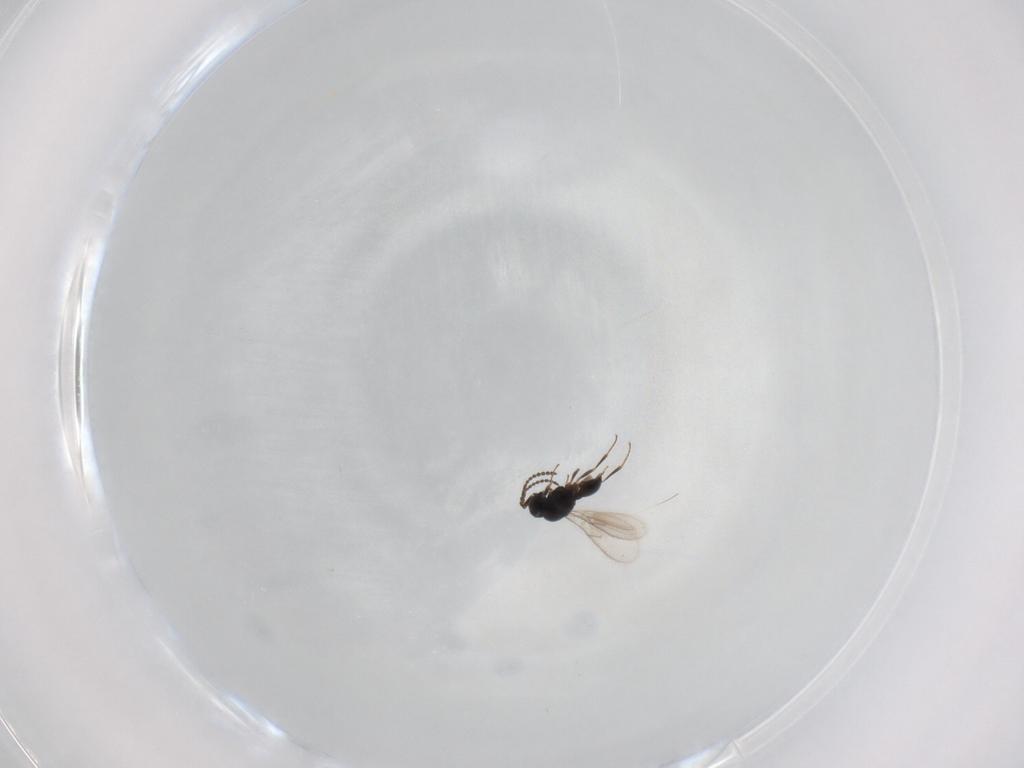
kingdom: Animalia
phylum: Arthropoda
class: Insecta
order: Hymenoptera
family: Scelionidae
